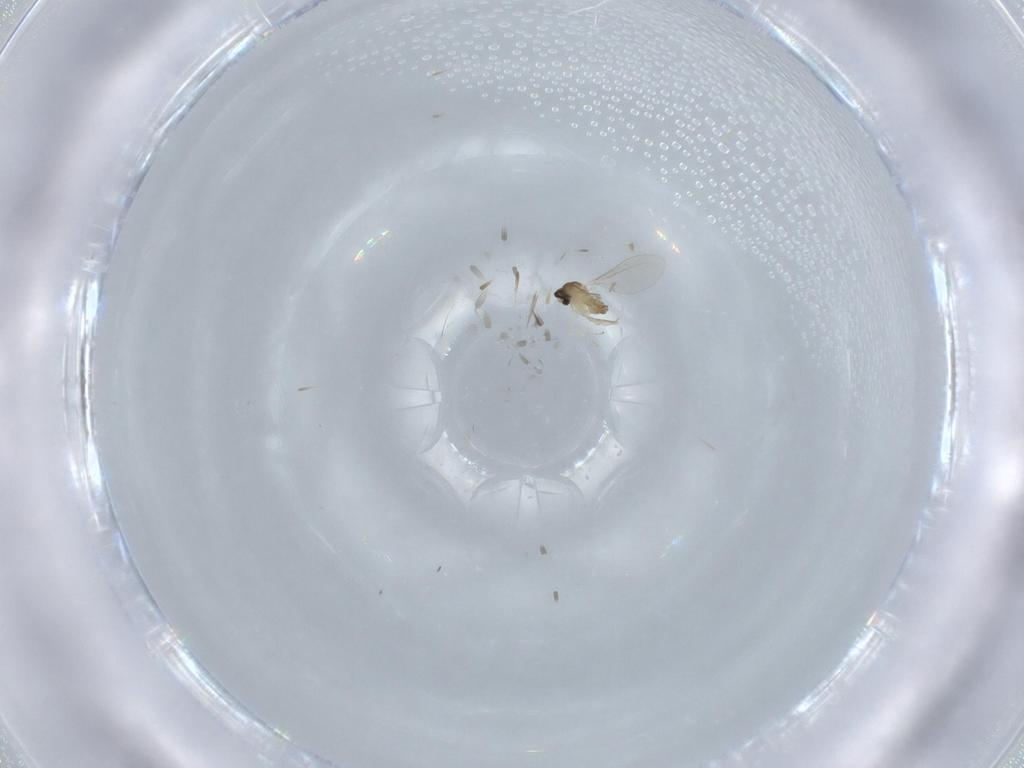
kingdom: Animalia
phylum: Arthropoda
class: Insecta
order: Diptera
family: Cecidomyiidae
